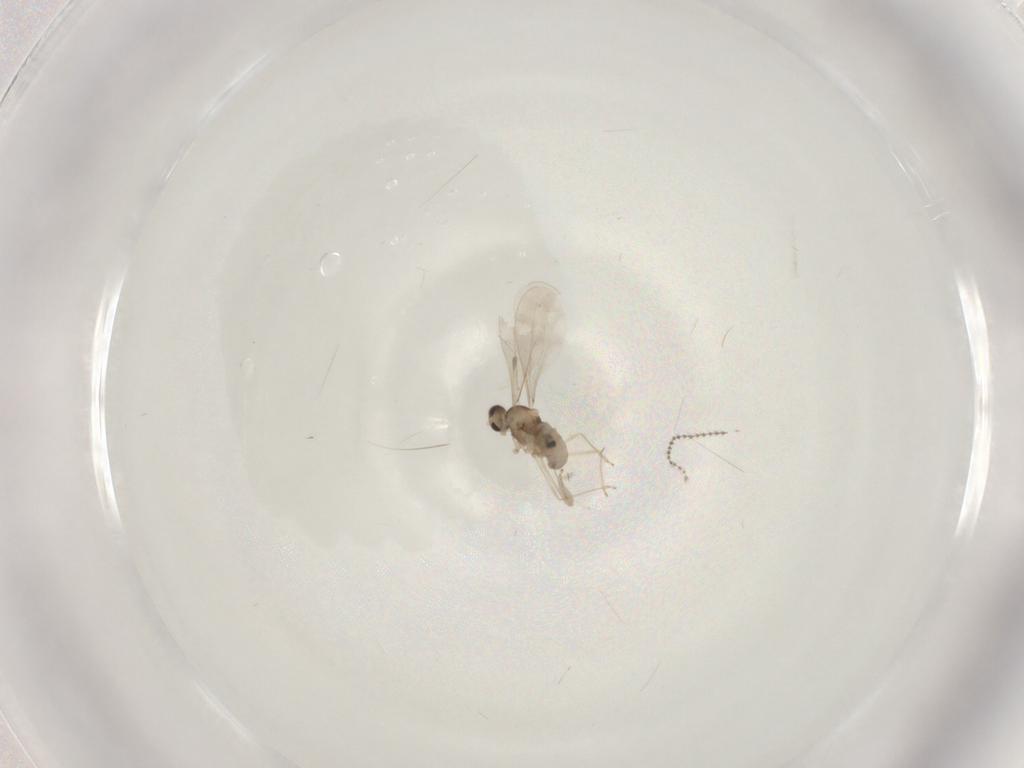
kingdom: Animalia
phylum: Arthropoda
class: Insecta
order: Diptera
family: Cecidomyiidae
